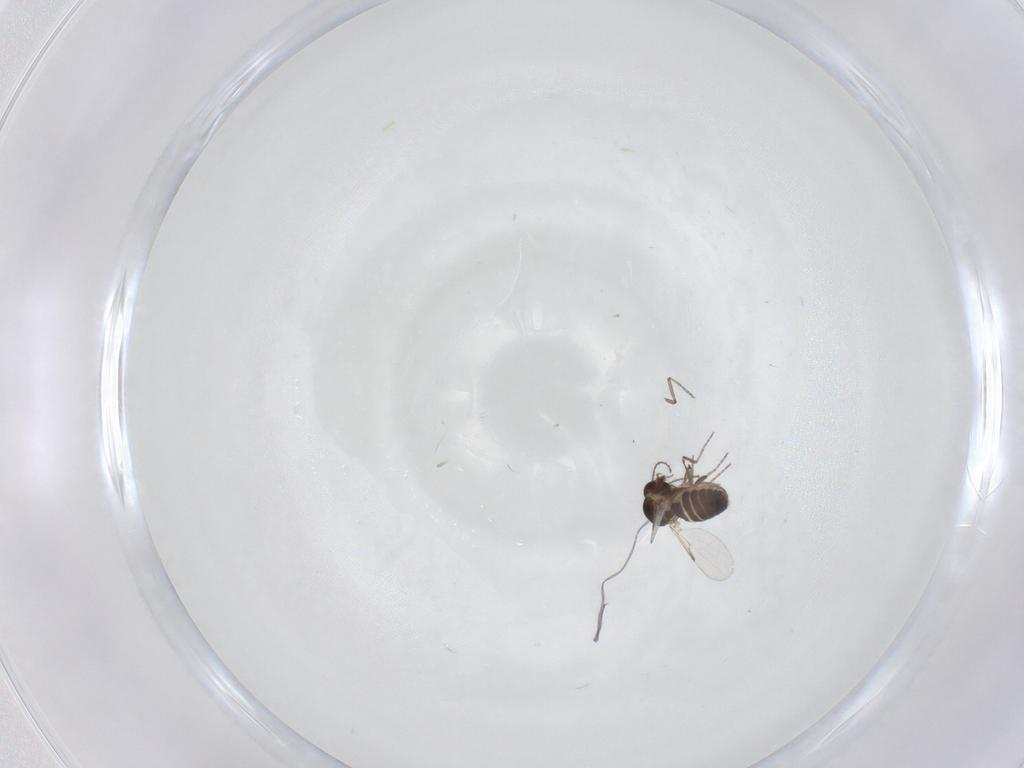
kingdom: Animalia
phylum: Arthropoda
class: Insecta
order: Diptera
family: Ceratopogonidae
